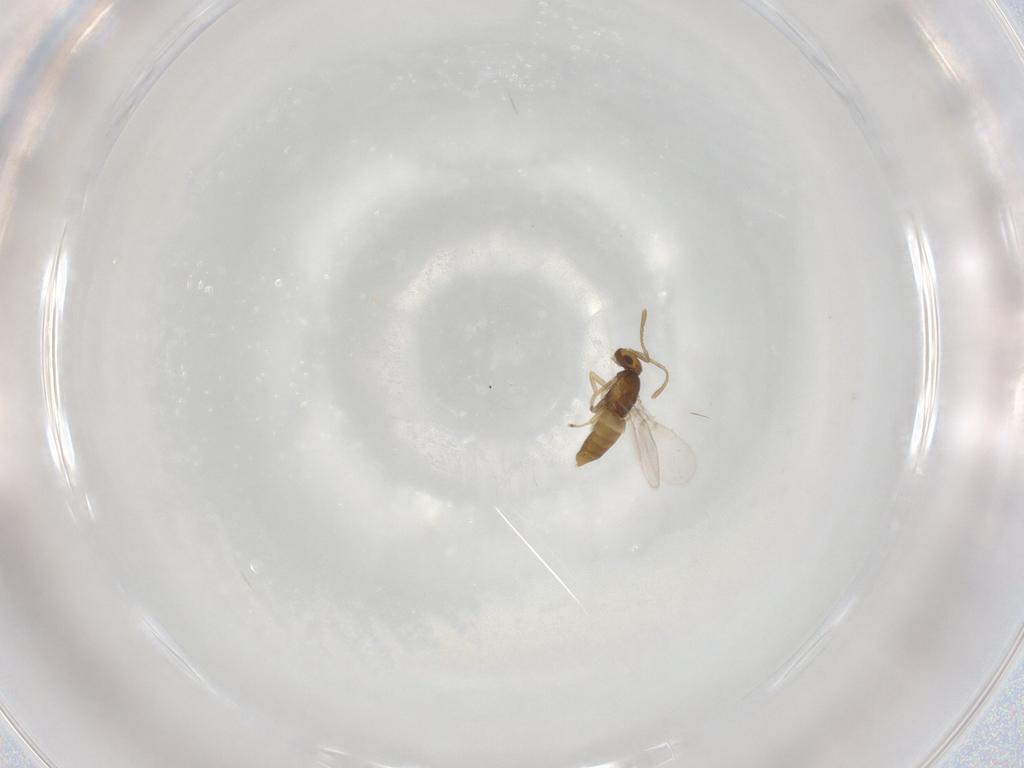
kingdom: Animalia
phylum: Arthropoda
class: Insecta
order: Hymenoptera
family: Encyrtidae
